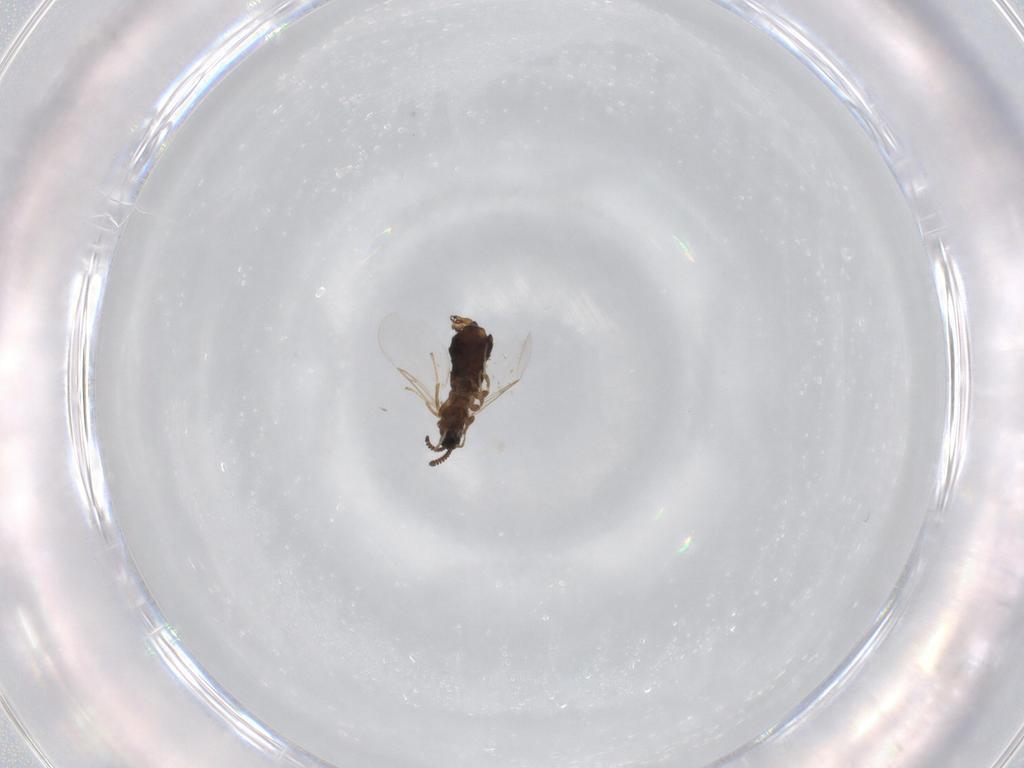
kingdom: Animalia
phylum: Arthropoda
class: Insecta
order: Diptera
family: Scatopsidae
